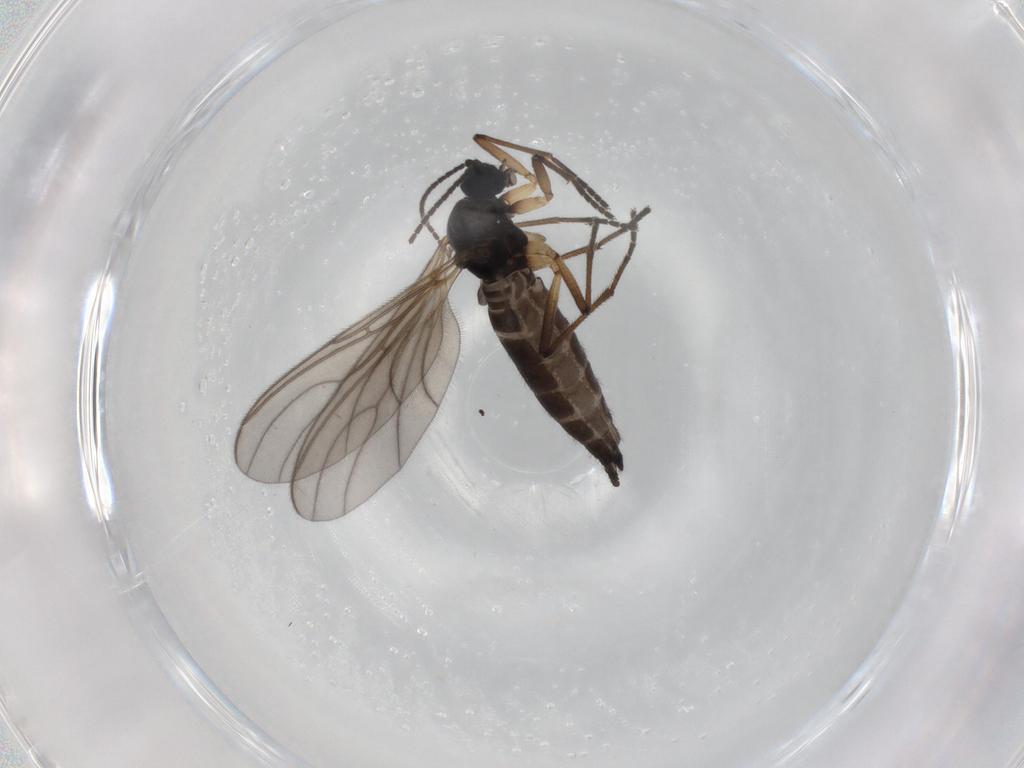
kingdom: Animalia
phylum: Arthropoda
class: Insecta
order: Diptera
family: Sciaridae
